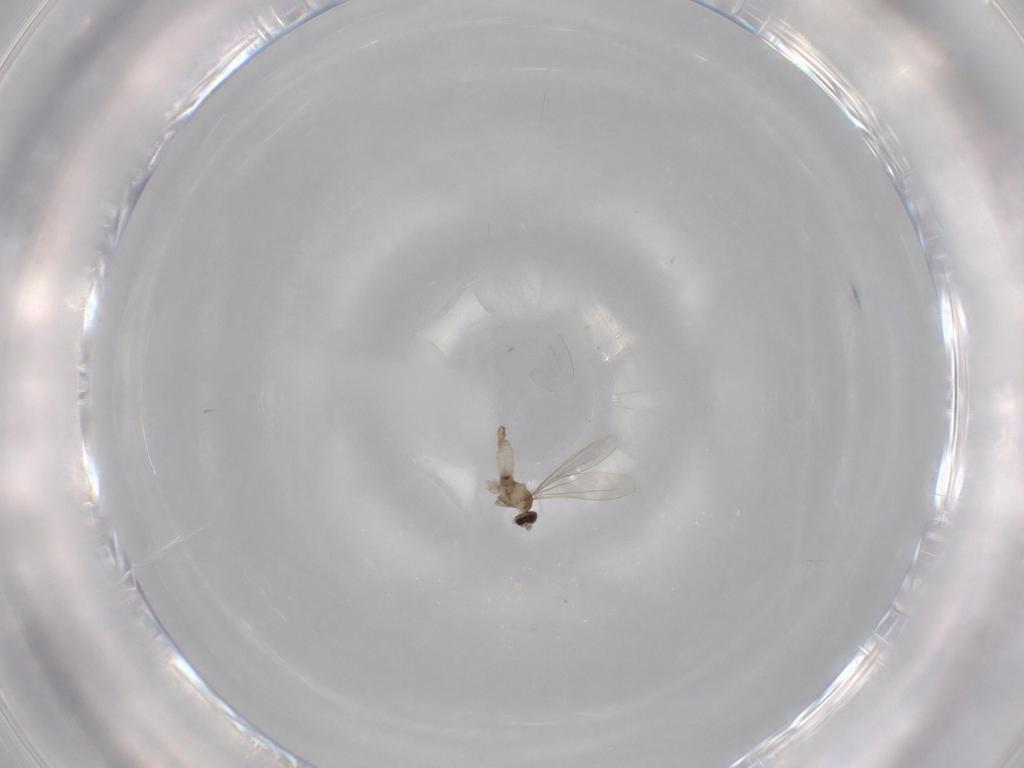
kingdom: Animalia
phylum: Arthropoda
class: Insecta
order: Diptera
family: Cecidomyiidae
